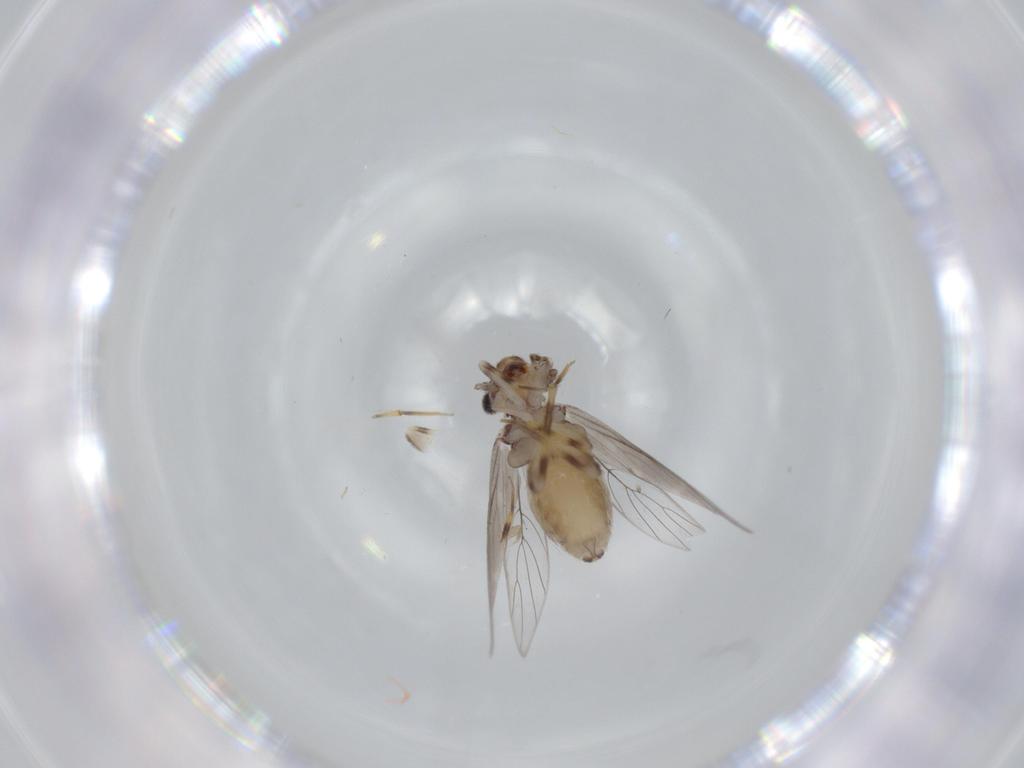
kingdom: Animalia
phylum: Arthropoda
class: Insecta
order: Psocodea
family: Lepidopsocidae
